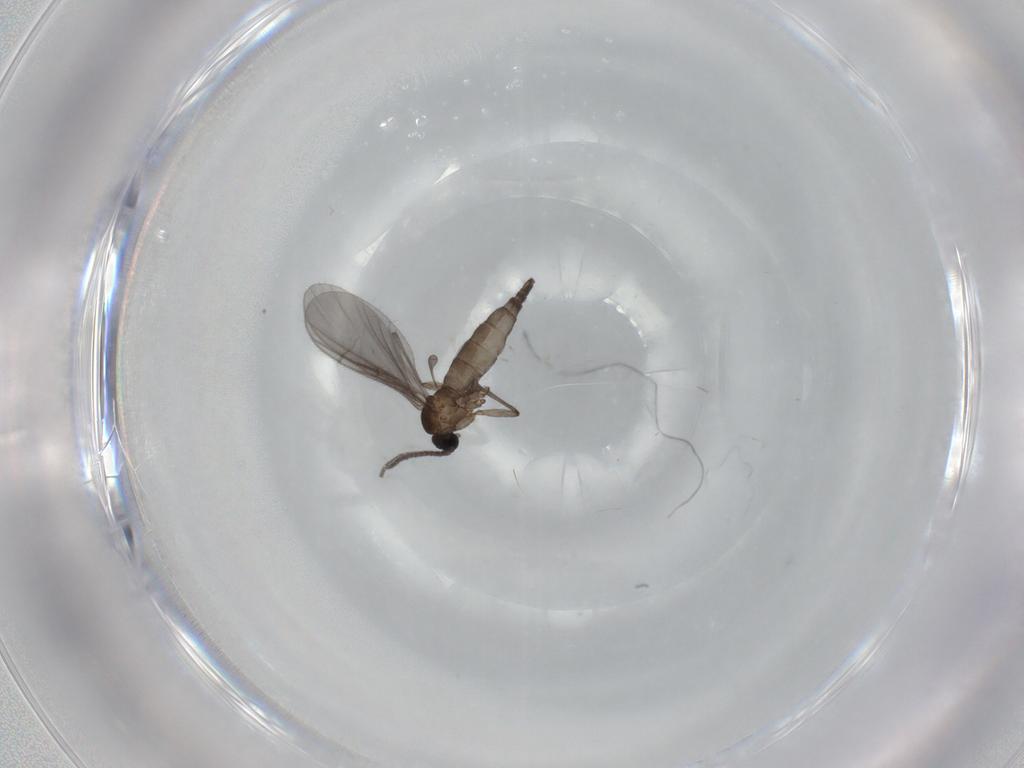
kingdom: Animalia
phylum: Arthropoda
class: Insecta
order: Diptera
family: Sciaridae
